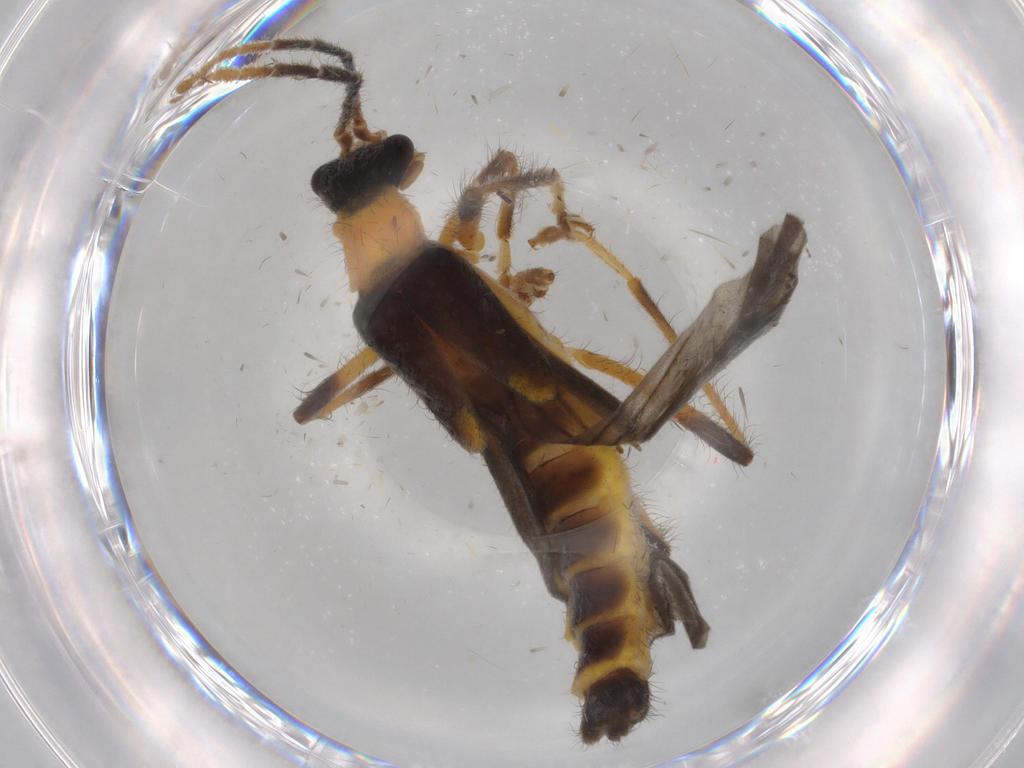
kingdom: Animalia
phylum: Arthropoda
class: Insecta
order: Coleoptera
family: Cantharidae
